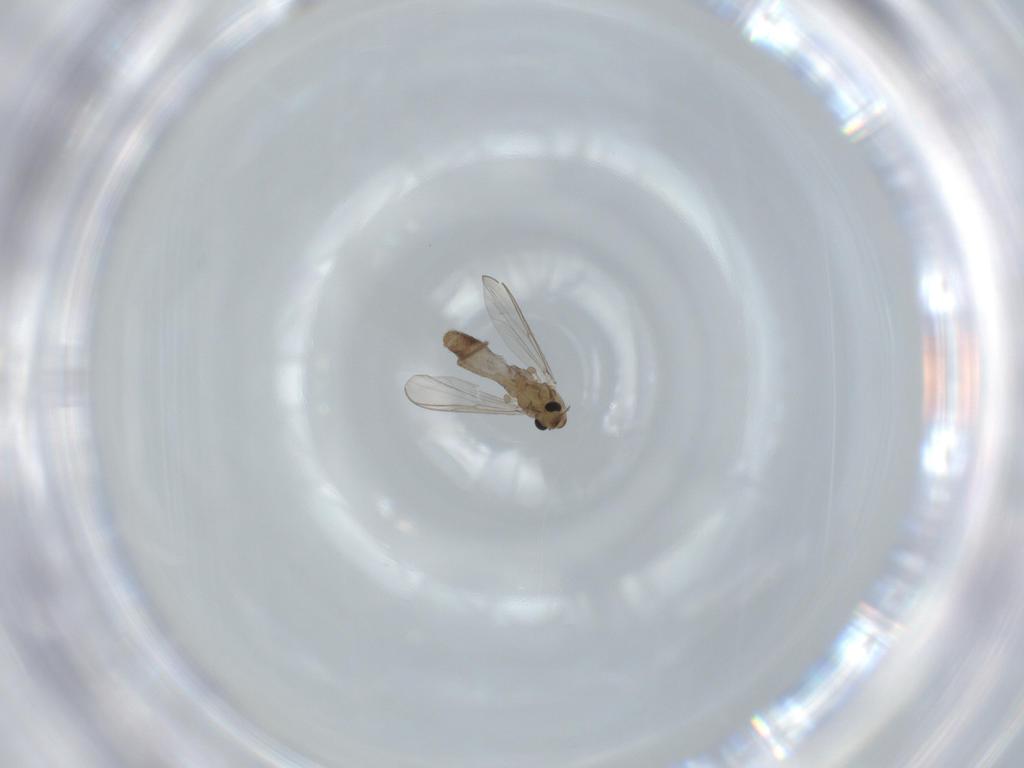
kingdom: Animalia
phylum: Arthropoda
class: Insecta
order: Diptera
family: Chironomidae
